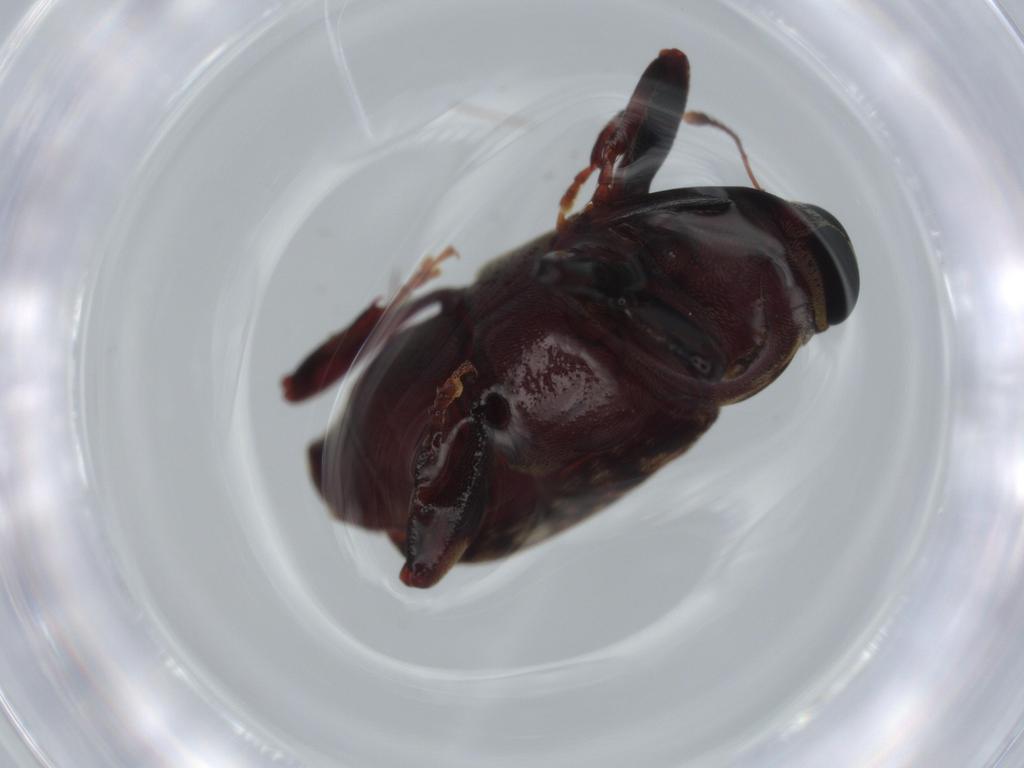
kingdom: Animalia
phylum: Arthropoda
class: Insecta
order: Coleoptera
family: Curculionidae
